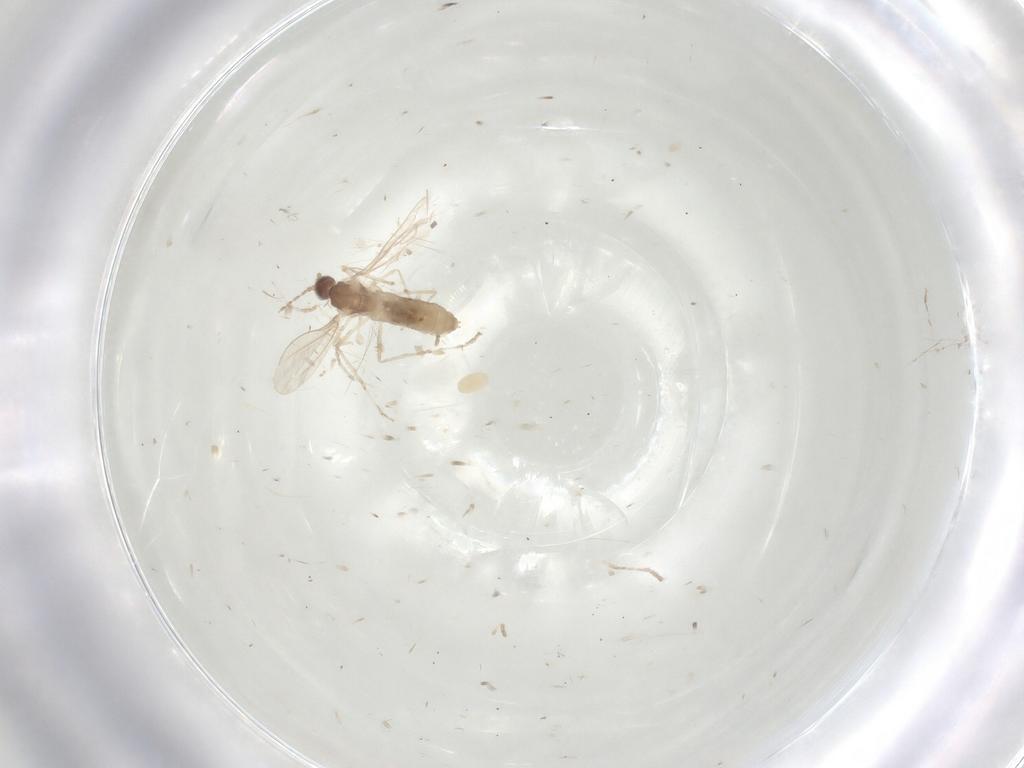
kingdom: Animalia
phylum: Arthropoda
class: Insecta
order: Diptera
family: Cecidomyiidae
